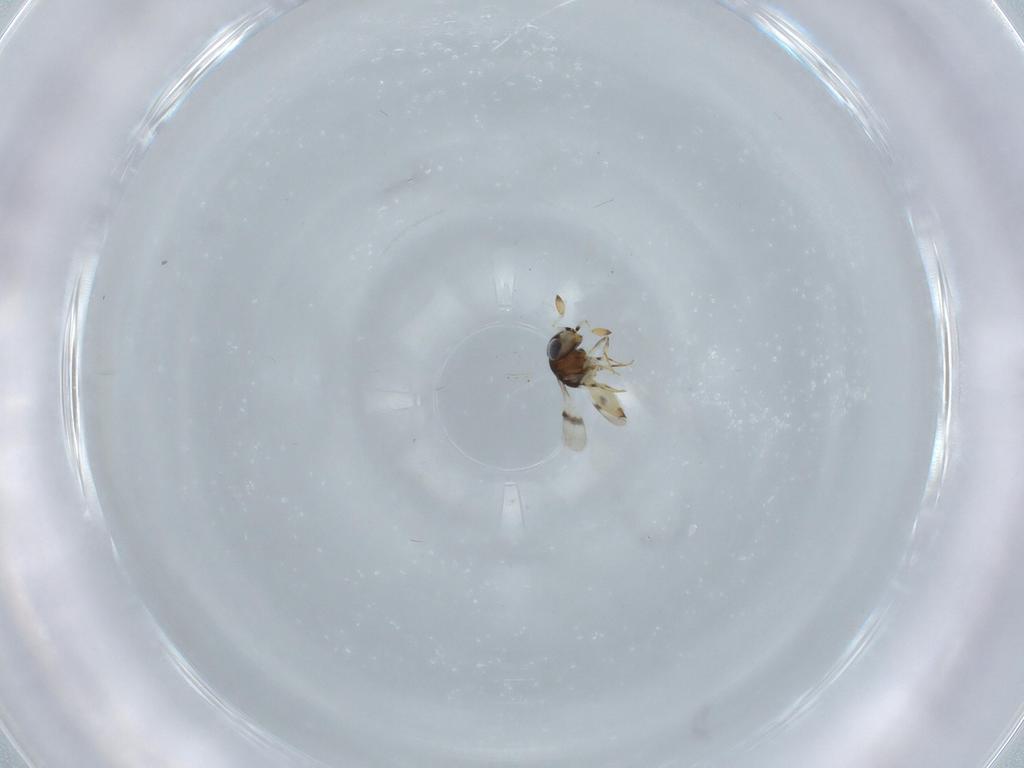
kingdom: Animalia
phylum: Arthropoda
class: Insecta
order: Hymenoptera
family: Scelionidae
